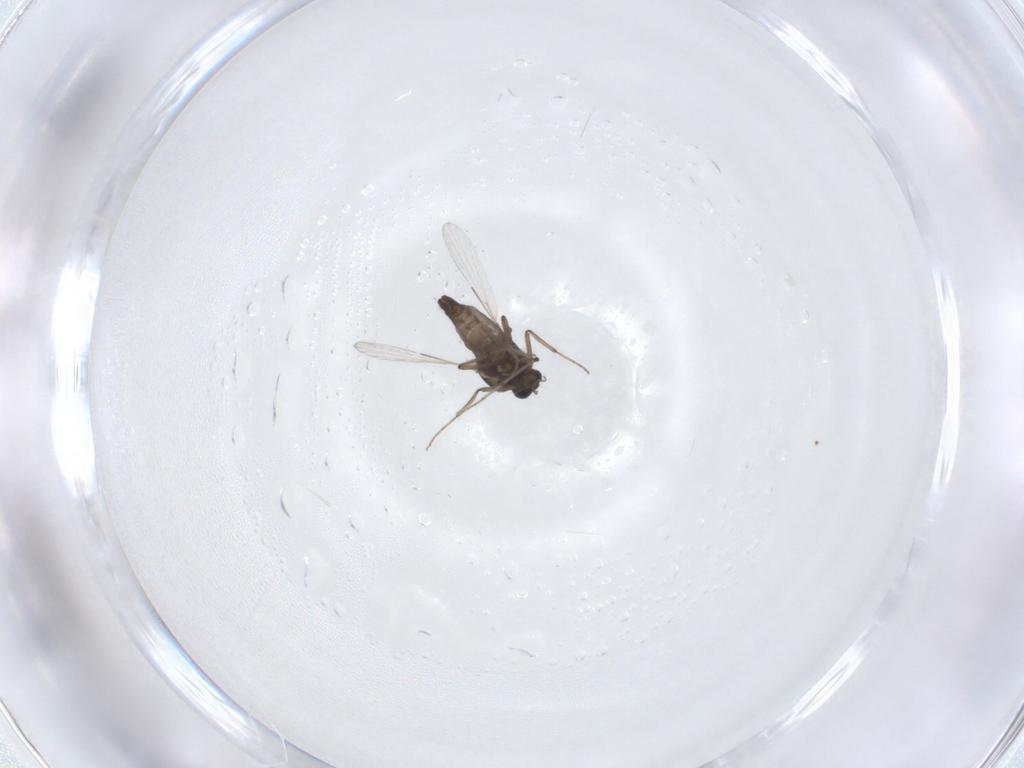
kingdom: Animalia
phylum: Arthropoda
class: Insecta
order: Diptera
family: Ceratopogonidae
